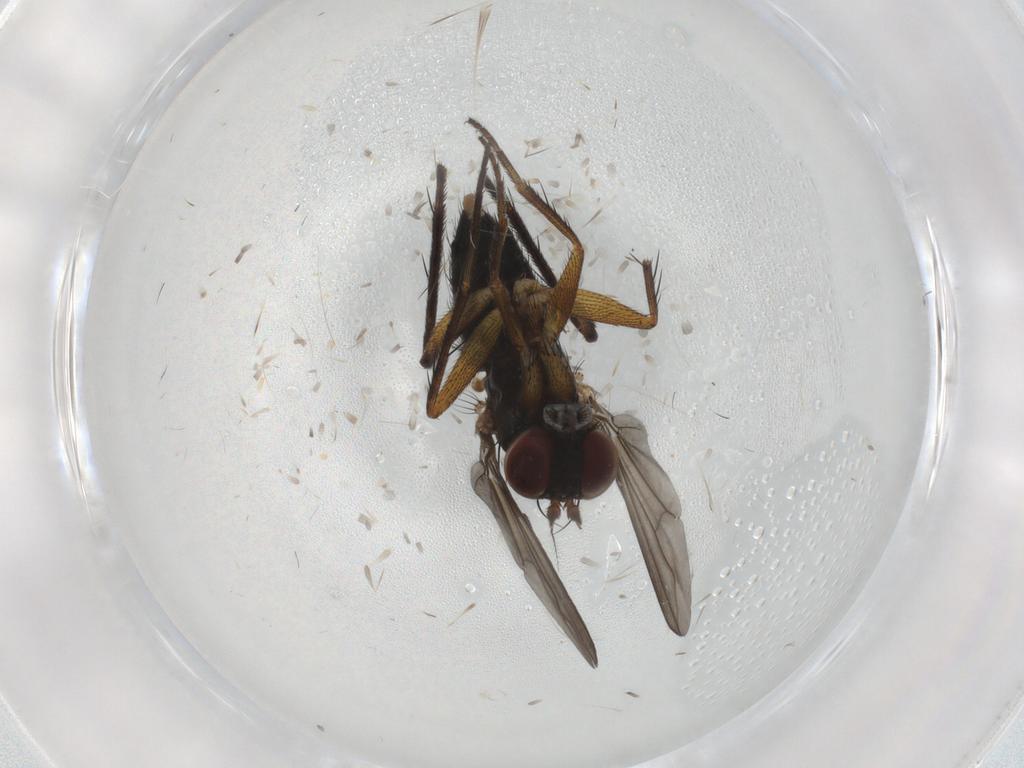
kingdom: Animalia
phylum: Arthropoda
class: Insecta
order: Diptera
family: Dolichopodidae
